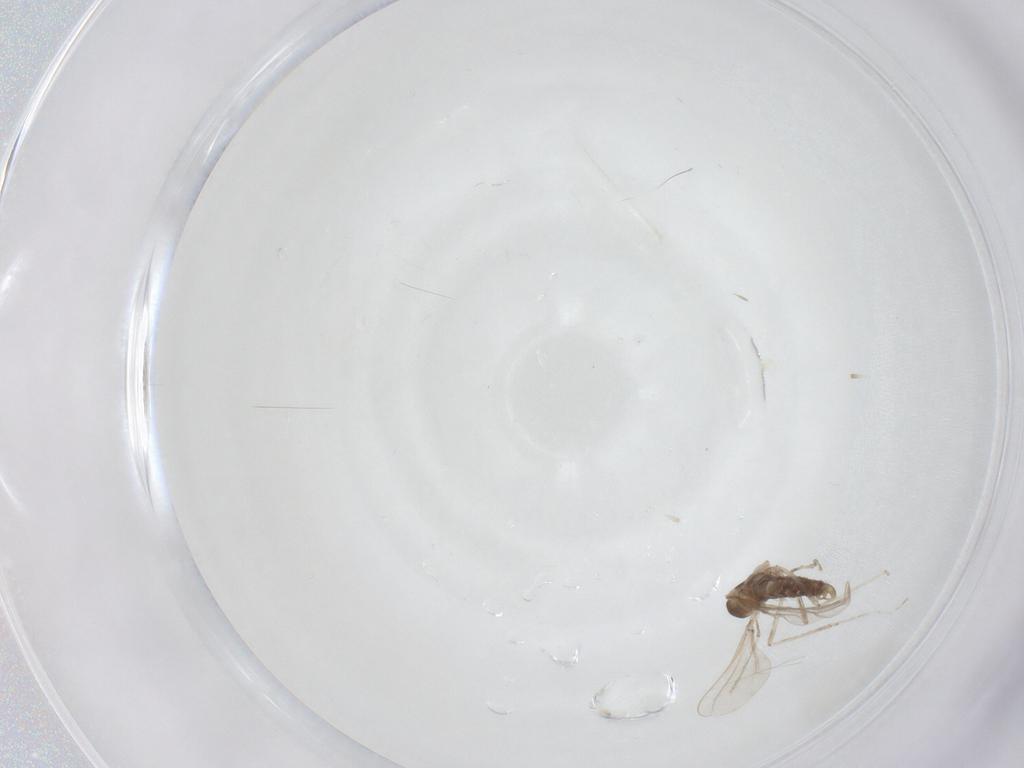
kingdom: Animalia
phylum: Arthropoda
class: Insecta
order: Diptera
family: Cecidomyiidae
